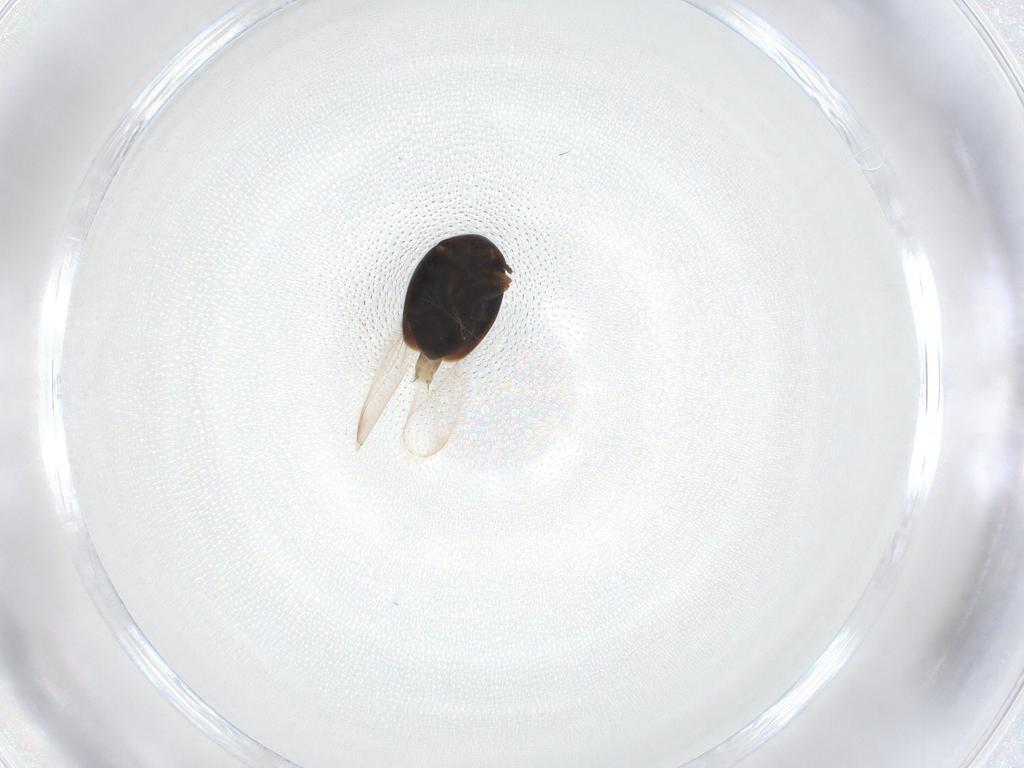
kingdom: Animalia
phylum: Arthropoda
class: Insecta
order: Coleoptera
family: Corylophidae
